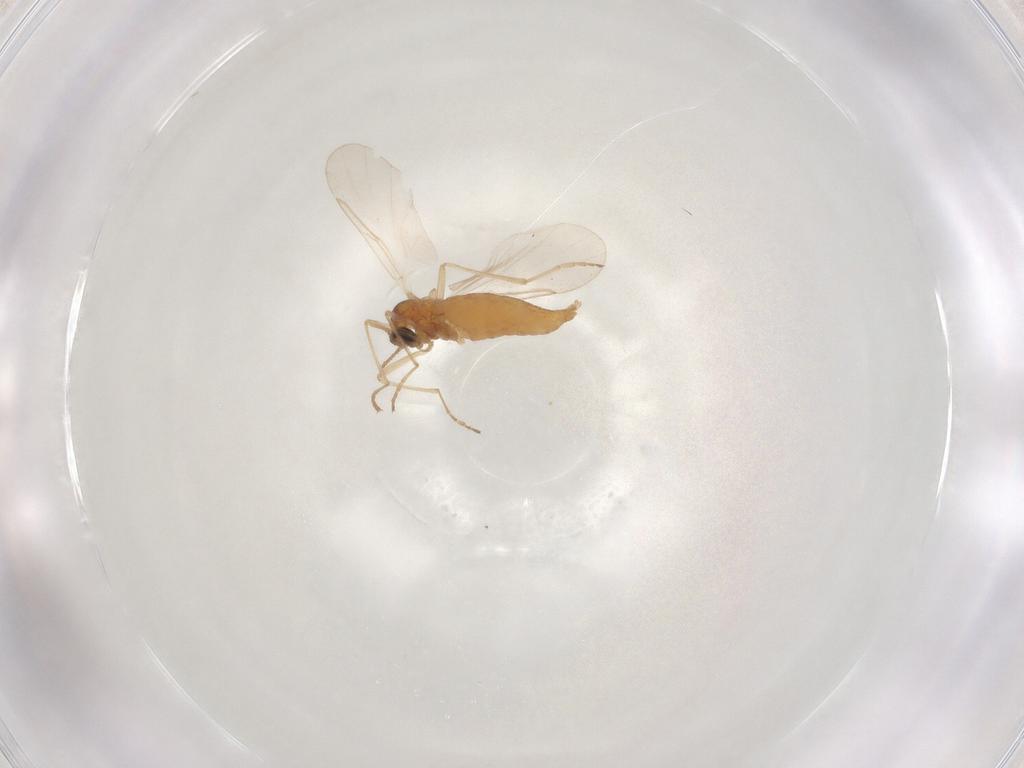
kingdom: Animalia
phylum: Arthropoda
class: Insecta
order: Diptera
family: Cecidomyiidae
